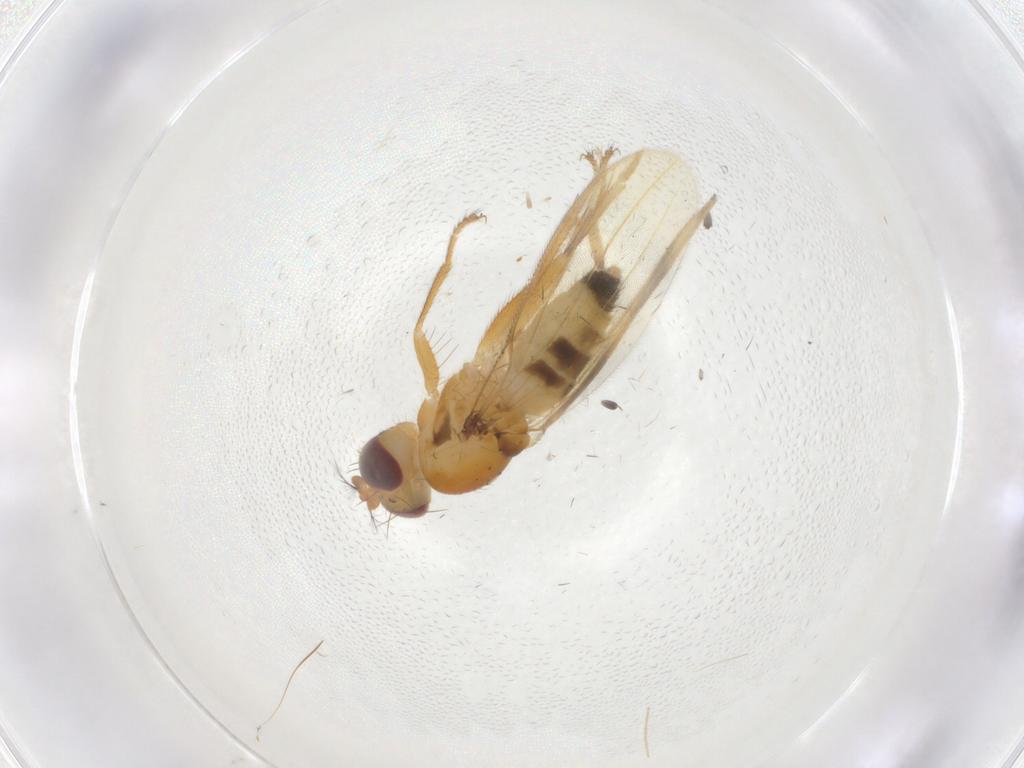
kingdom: Animalia
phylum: Arthropoda
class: Insecta
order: Diptera
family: Periscelididae
